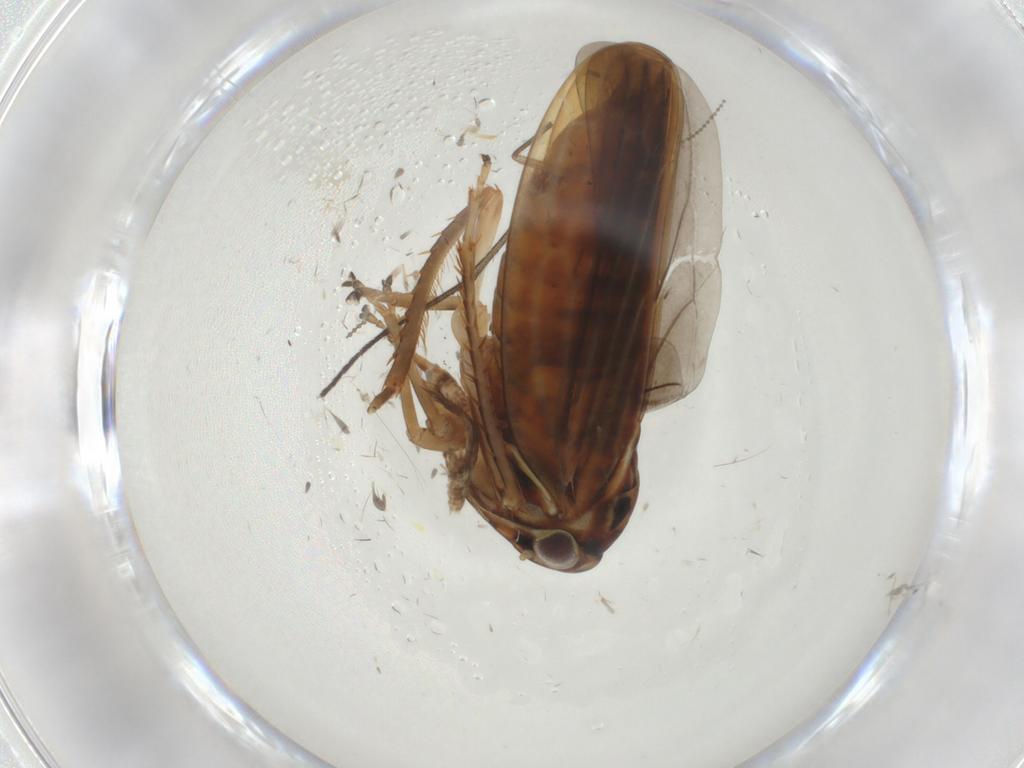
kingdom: Animalia
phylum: Arthropoda
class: Insecta
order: Hemiptera
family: Cicadellidae
